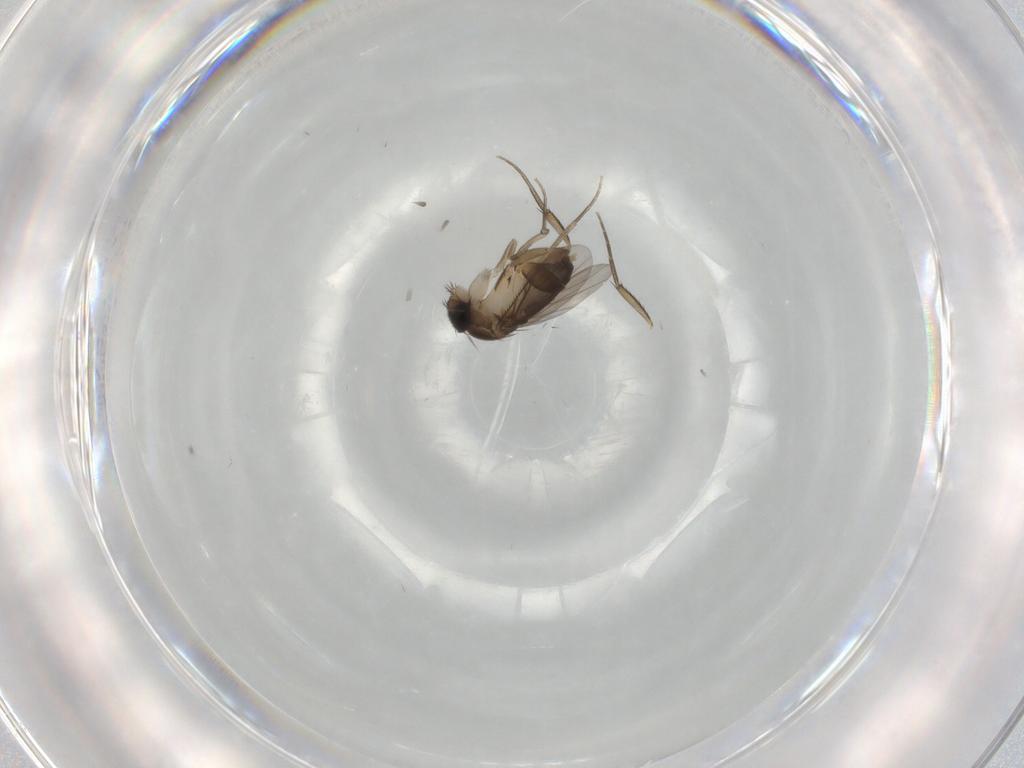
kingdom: Animalia
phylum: Arthropoda
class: Insecta
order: Diptera
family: Phoridae
